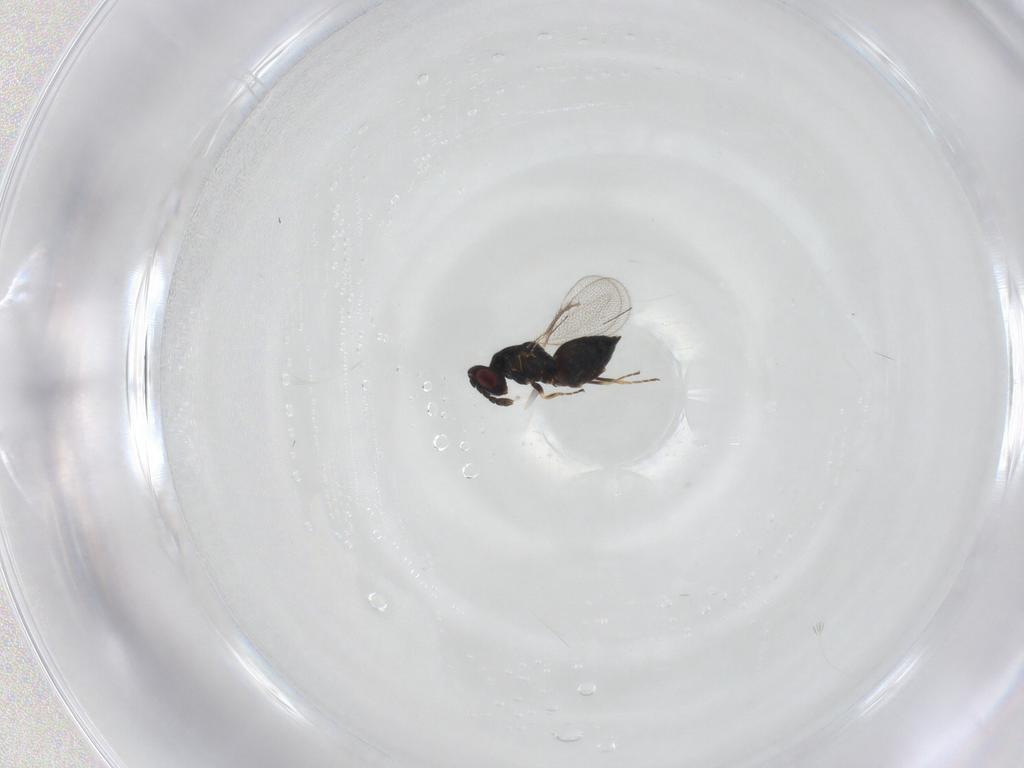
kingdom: Animalia
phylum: Arthropoda
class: Insecta
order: Hymenoptera
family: Eulophidae
